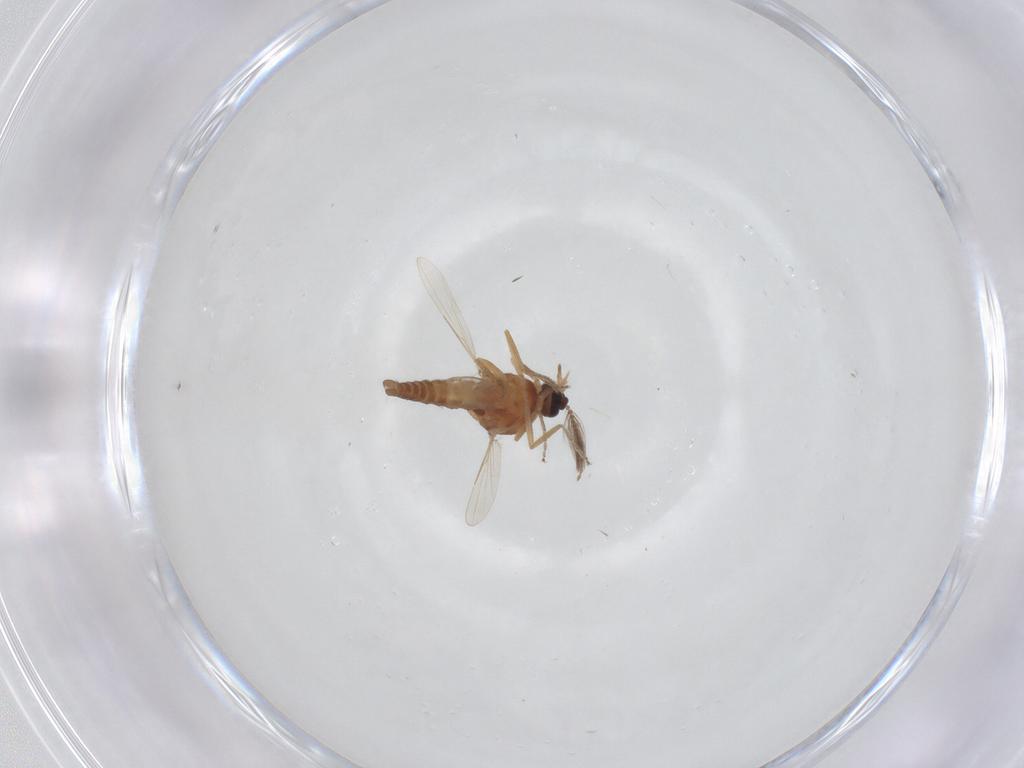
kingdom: Animalia
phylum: Arthropoda
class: Insecta
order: Diptera
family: Ceratopogonidae
